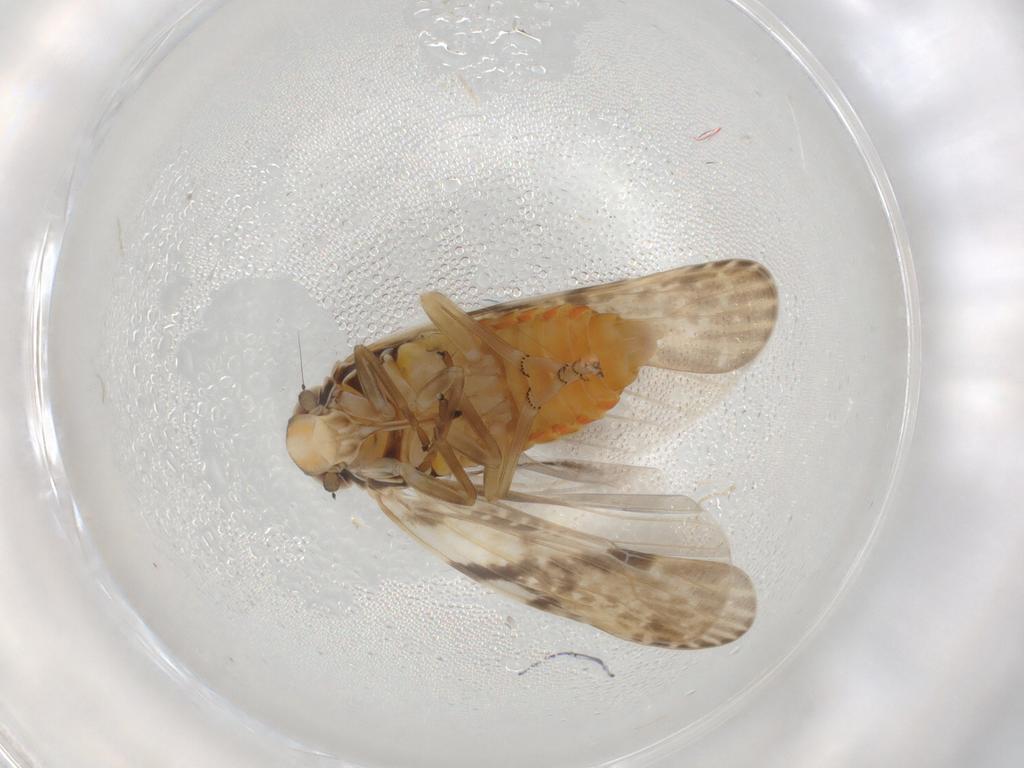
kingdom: Animalia
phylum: Arthropoda
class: Insecta
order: Hemiptera
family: Achilidae
